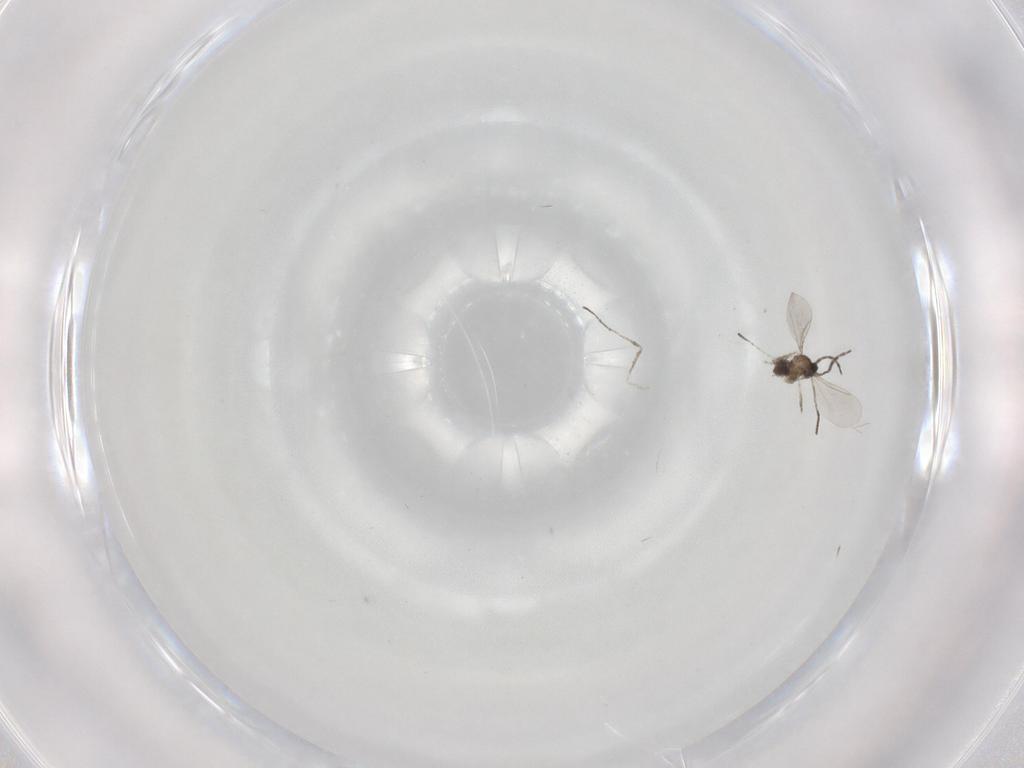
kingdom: Animalia
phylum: Arthropoda
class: Insecta
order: Diptera
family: Cecidomyiidae
